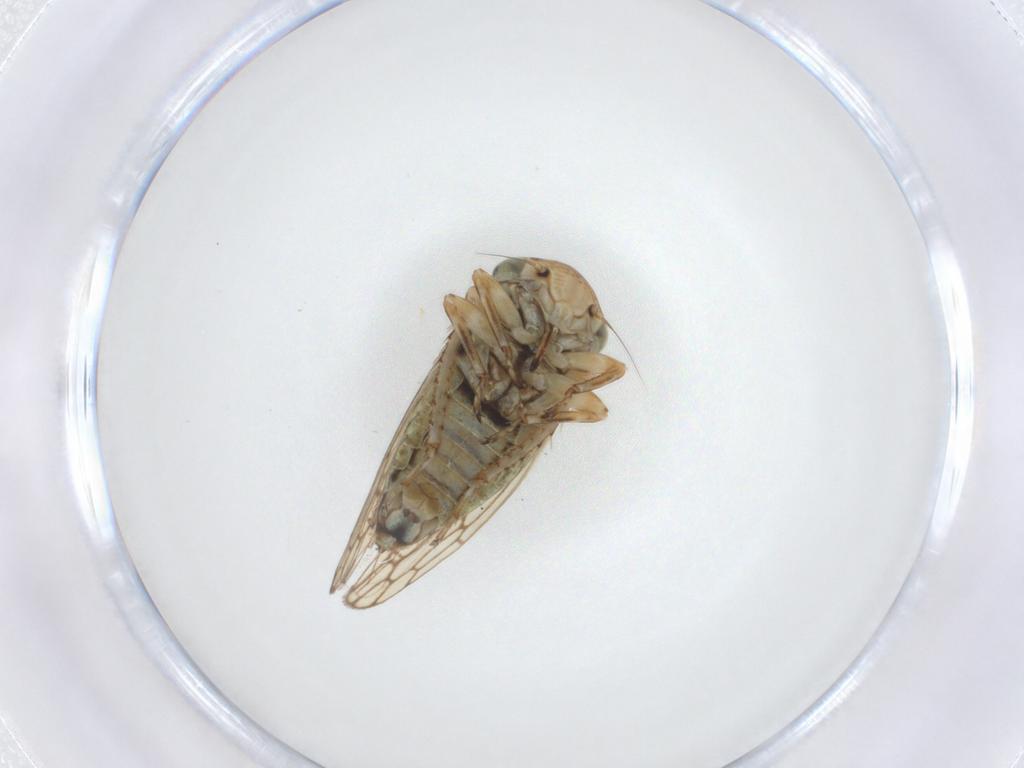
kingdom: Animalia
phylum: Arthropoda
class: Insecta
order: Hemiptera
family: Cicadellidae
